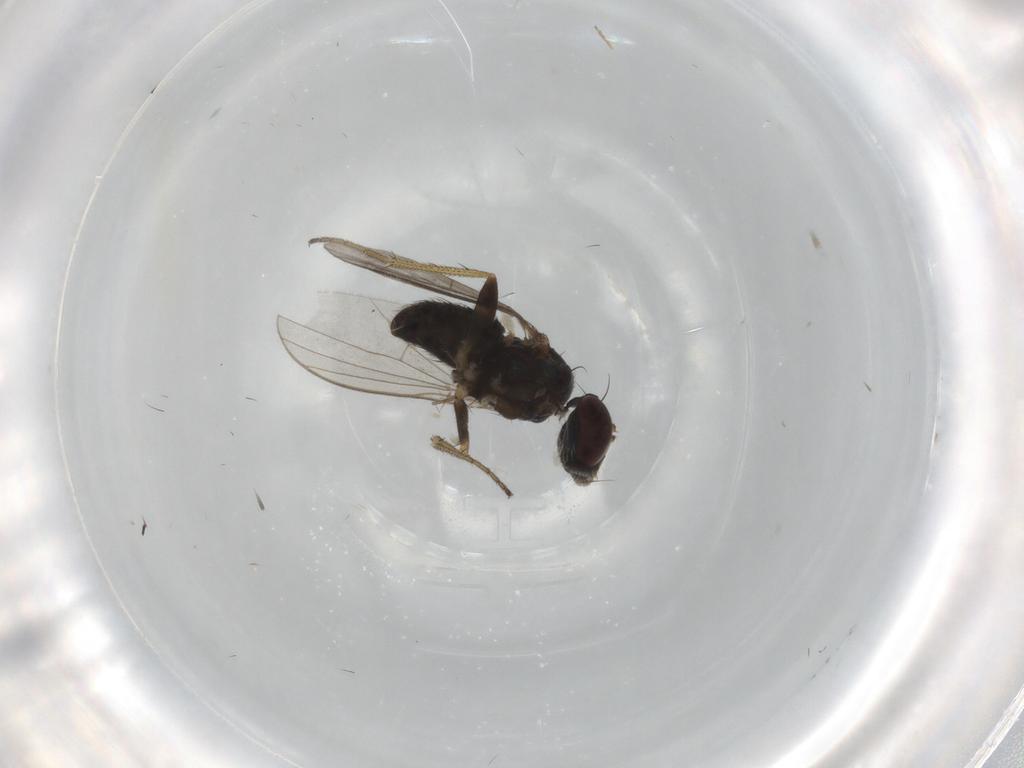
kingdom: Animalia
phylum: Arthropoda
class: Insecta
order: Diptera
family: Dolichopodidae
